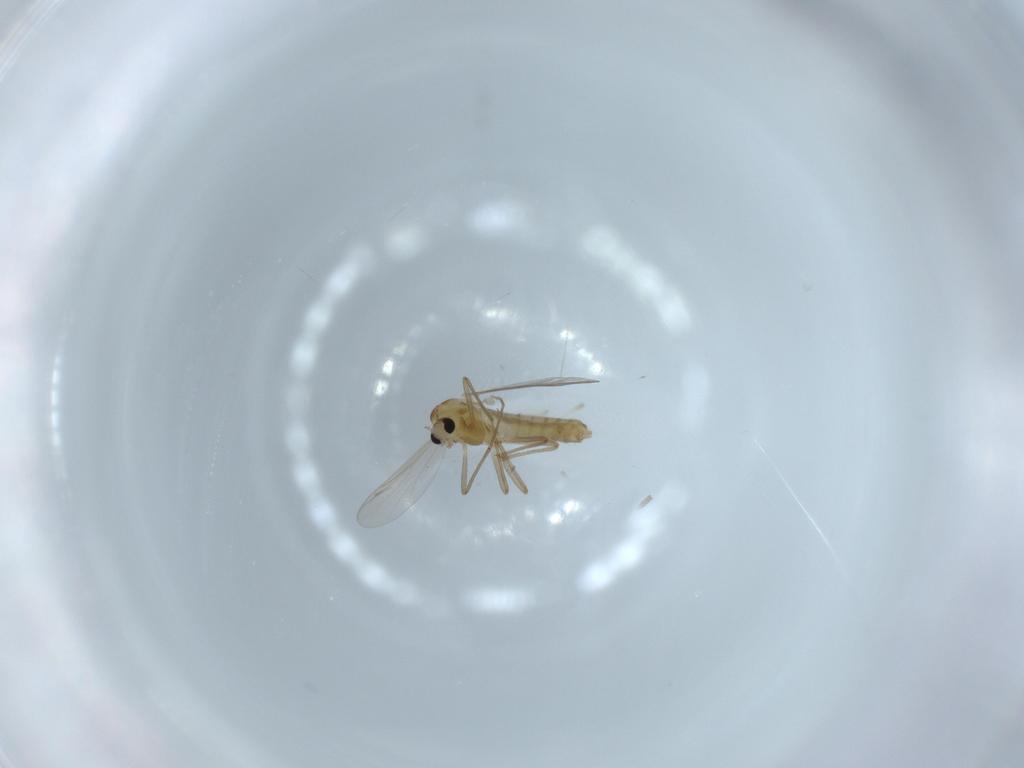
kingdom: Animalia
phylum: Arthropoda
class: Insecta
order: Diptera
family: Chironomidae
